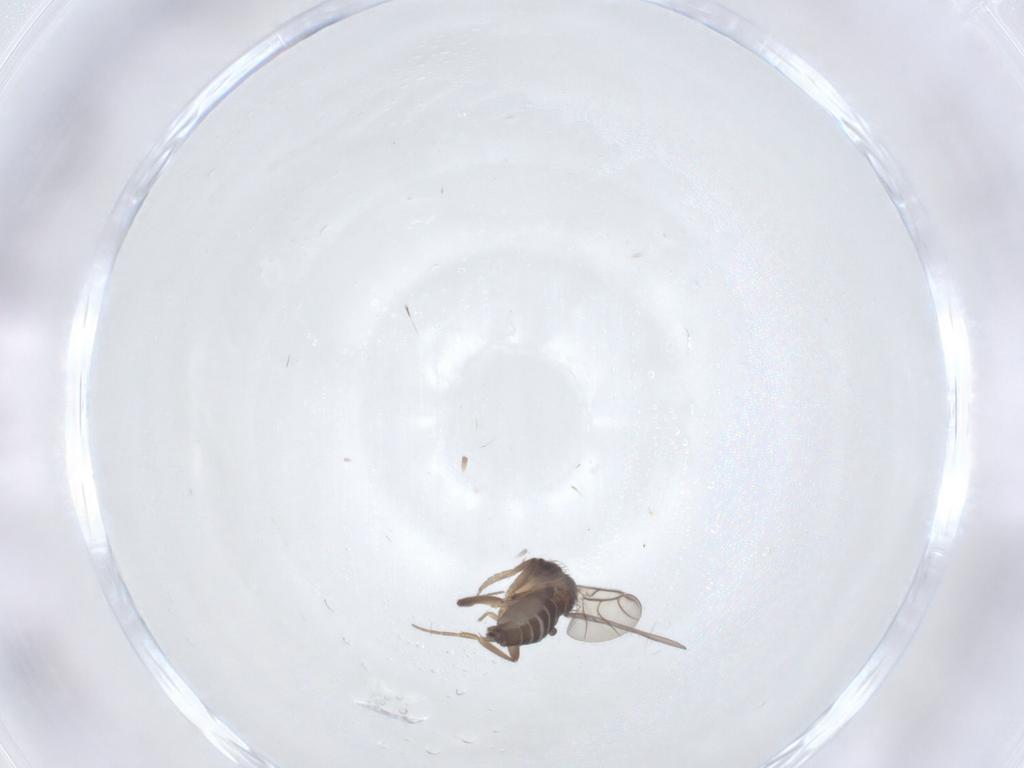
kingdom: Animalia
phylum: Arthropoda
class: Insecta
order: Diptera
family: Phoridae
